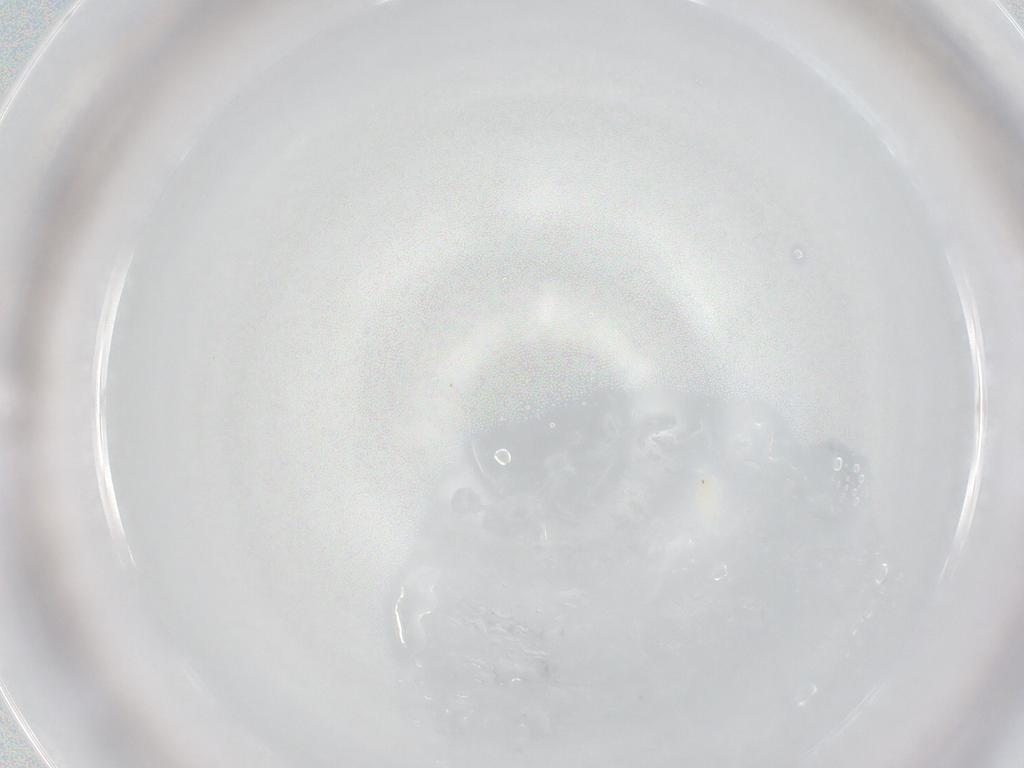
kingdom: Animalia
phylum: Arthropoda
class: Arachnida
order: Trombidiformes
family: Rhagidiidae
